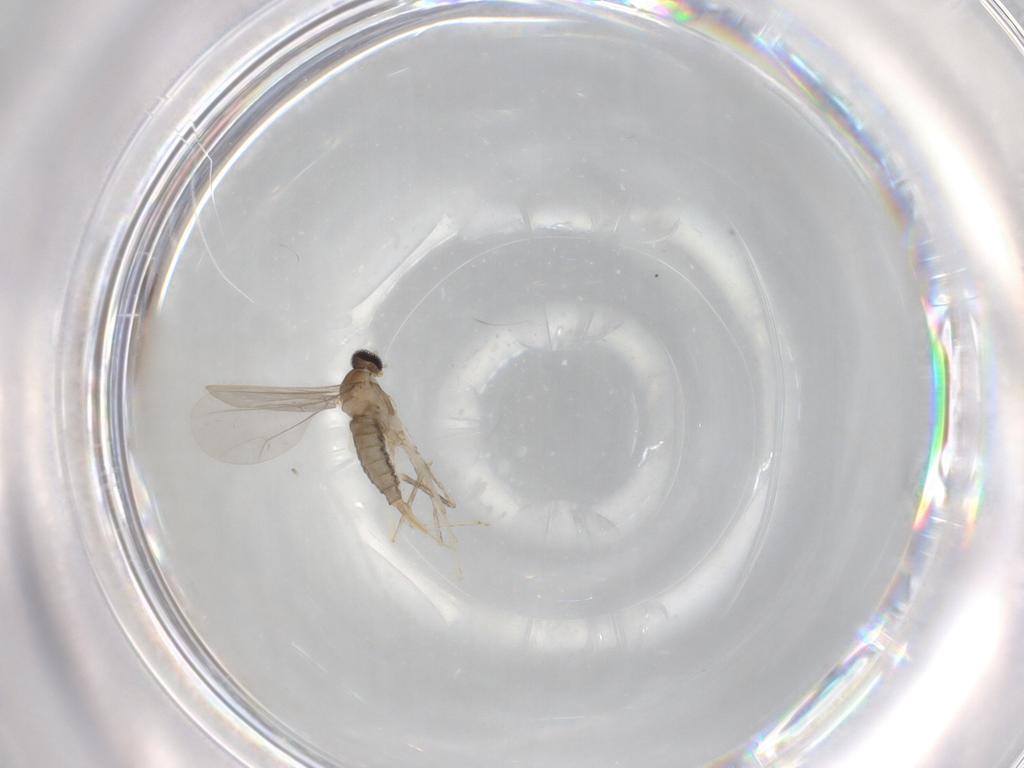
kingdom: Animalia
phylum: Arthropoda
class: Insecta
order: Diptera
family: Cecidomyiidae
